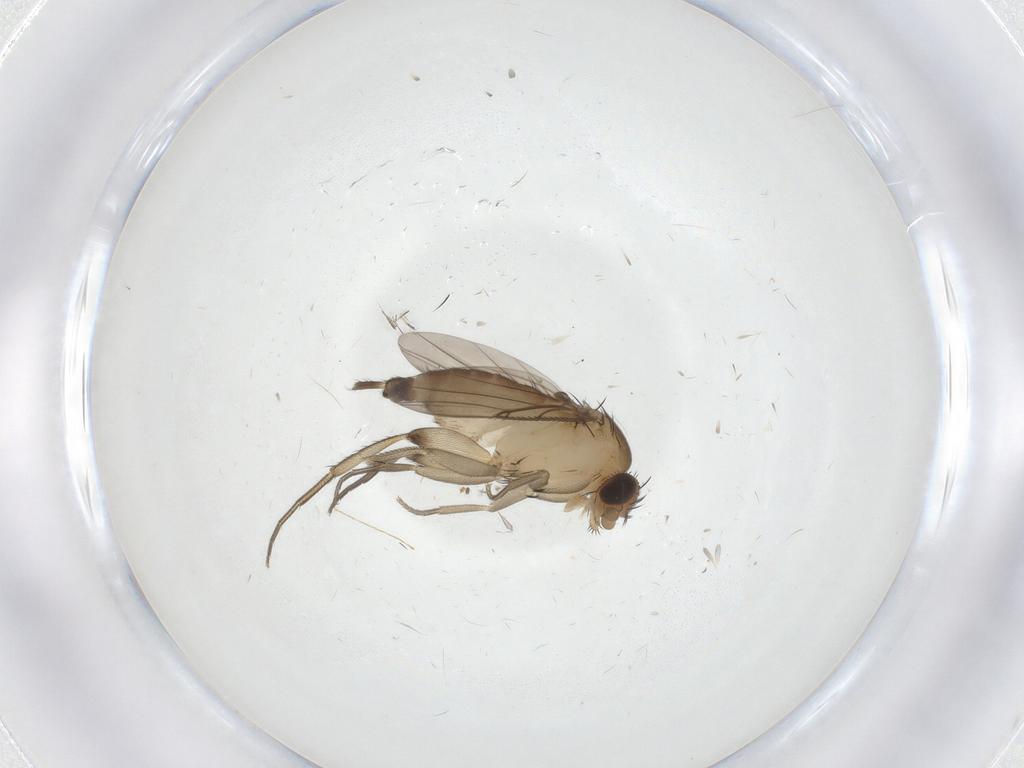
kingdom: Animalia
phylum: Arthropoda
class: Insecta
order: Diptera
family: Phoridae
